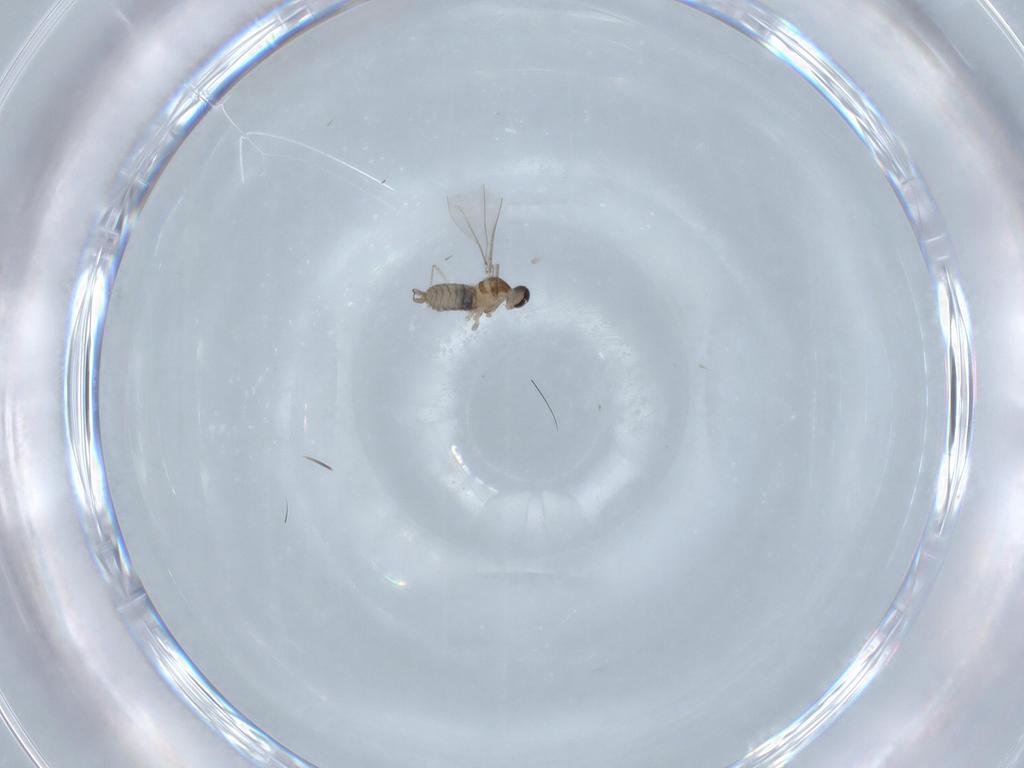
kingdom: Animalia
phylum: Arthropoda
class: Insecta
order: Diptera
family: Cecidomyiidae
